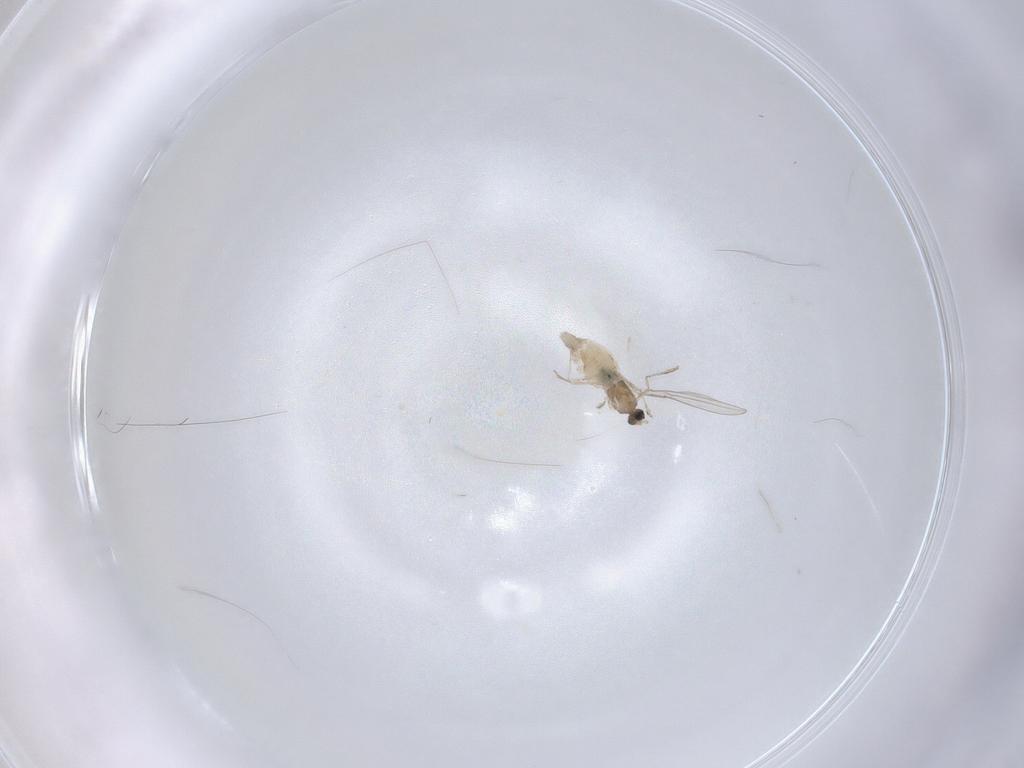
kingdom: Animalia
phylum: Arthropoda
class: Insecta
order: Diptera
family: Cecidomyiidae
